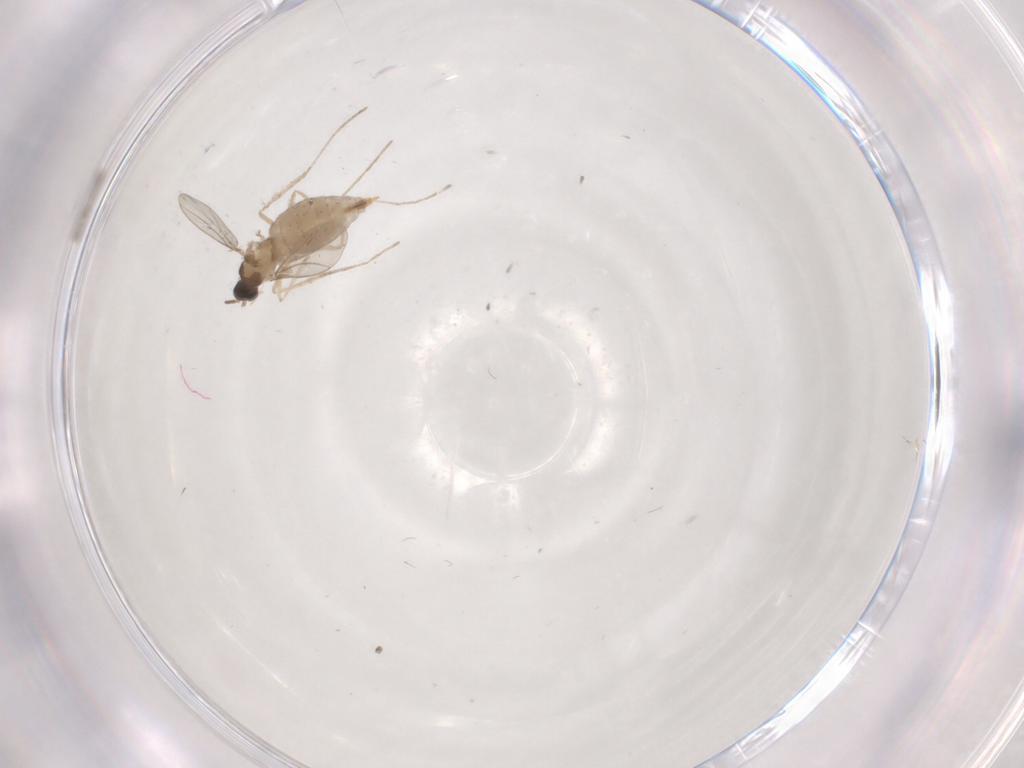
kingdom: Animalia
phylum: Arthropoda
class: Insecta
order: Diptera
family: Cecidomyiidae
